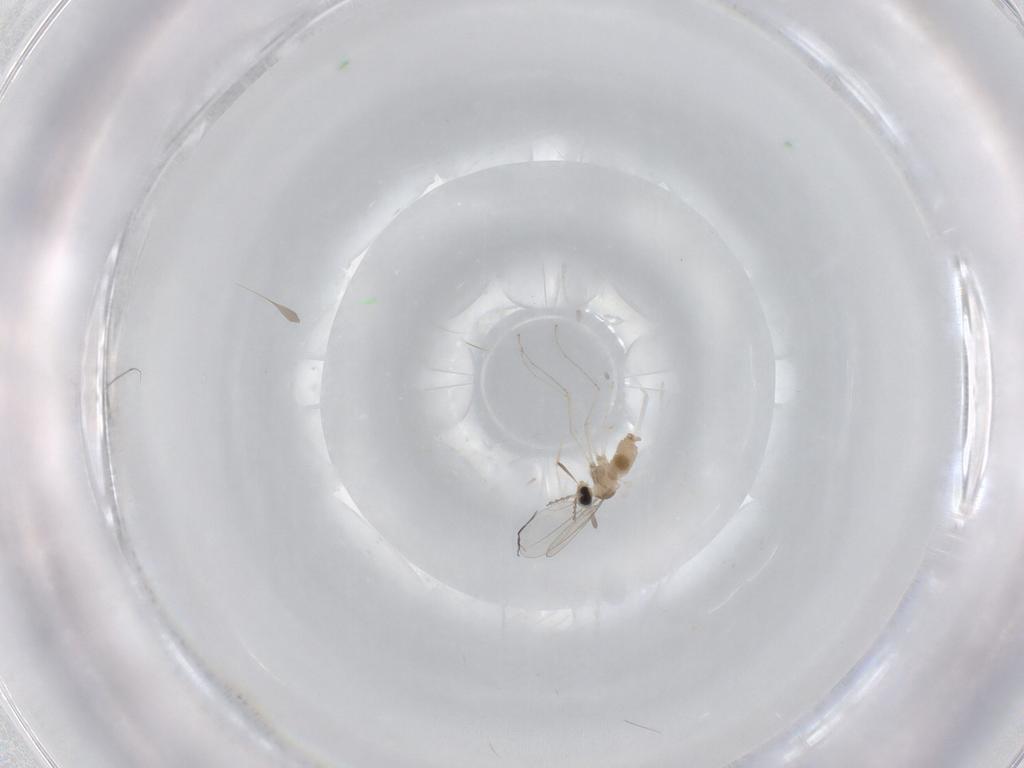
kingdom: Animalia
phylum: Arthropoda
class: Insecta
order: Diptera
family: Cecidomyiidae
